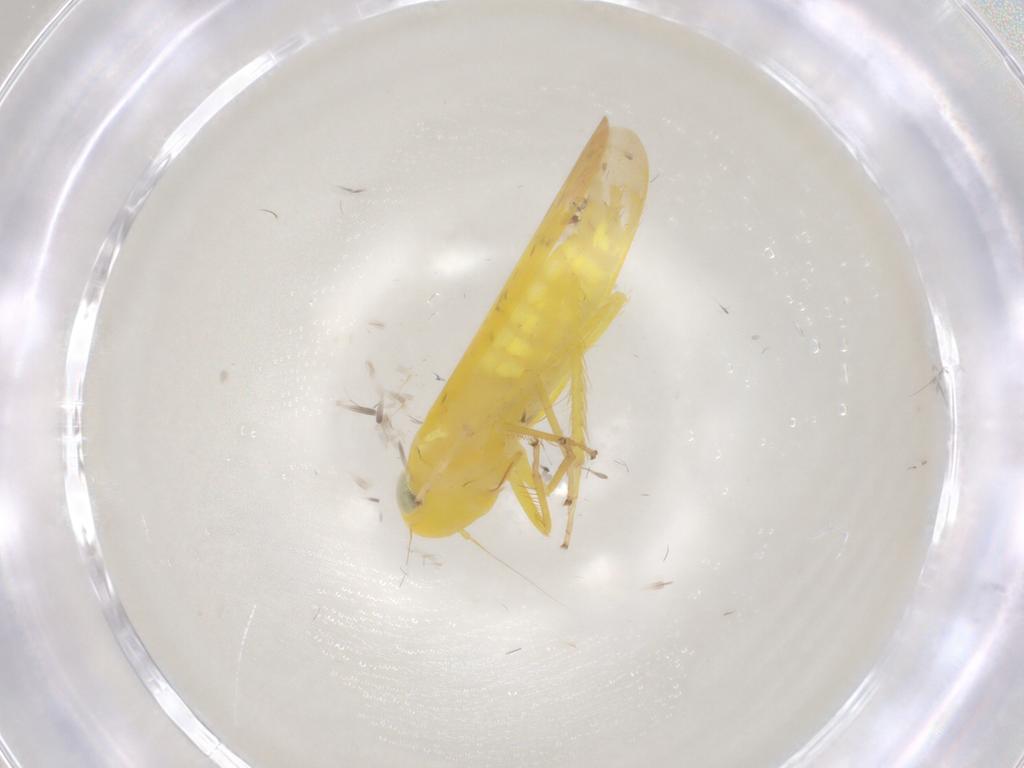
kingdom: Animalia
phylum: Arthropoda
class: Insecta
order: Hemiptera
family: Cicadellidae
